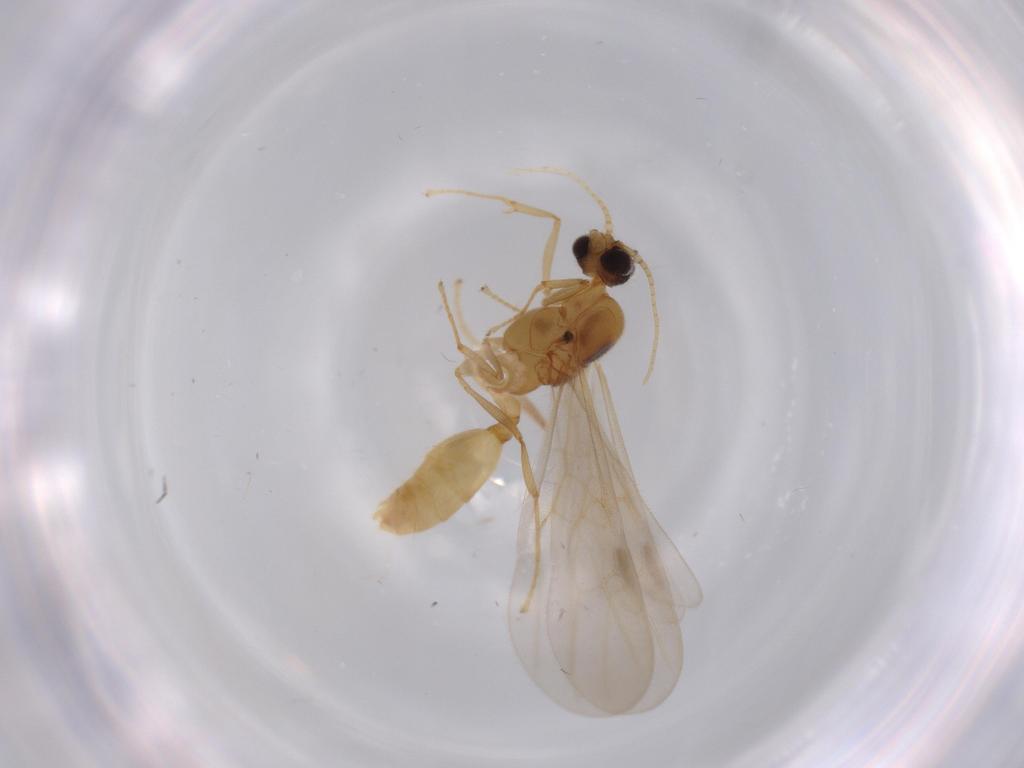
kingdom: Animalia
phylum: Arthropoda
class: Insecta
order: Hymenoptera
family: Formicidae
